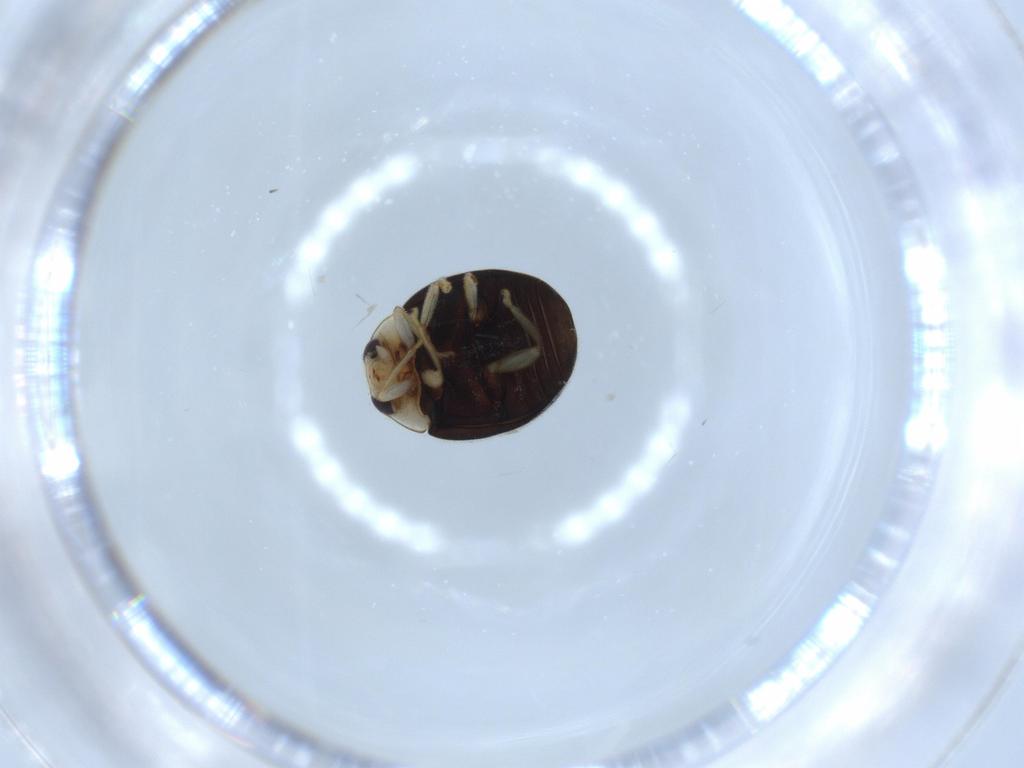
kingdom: Animalia
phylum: Arthropoda
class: Insecta
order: Coleoptera
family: Coccinellidae
